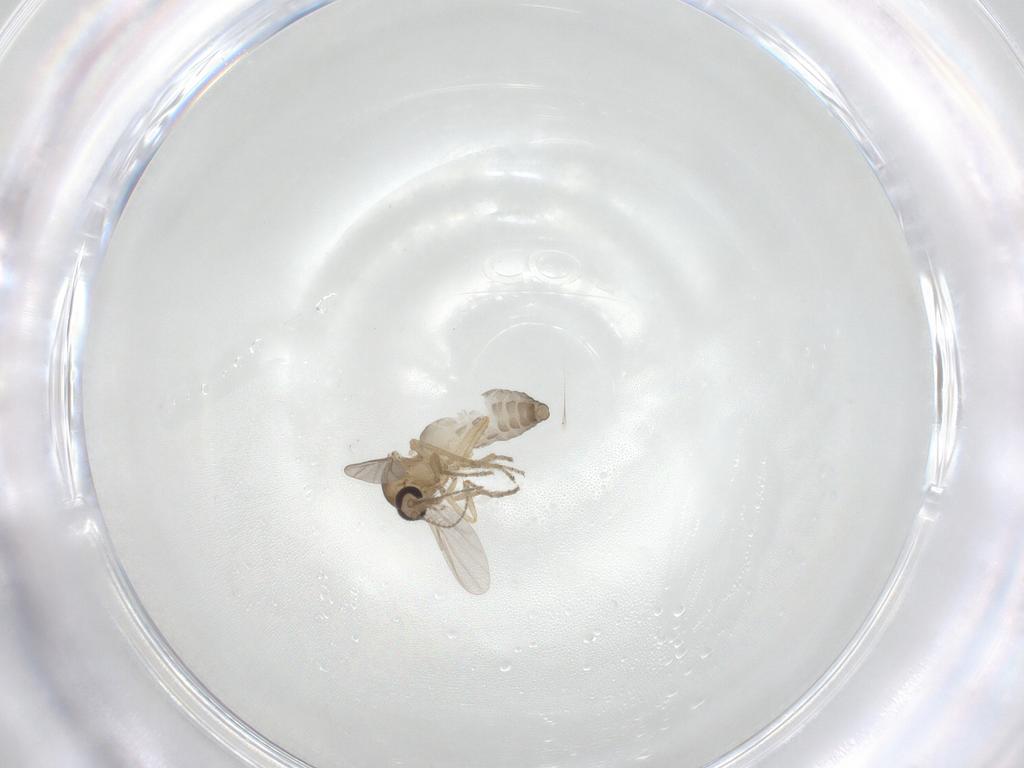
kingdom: Animalia
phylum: Arthropoda
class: Insecta
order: Diptera
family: Ceratopogonidae
